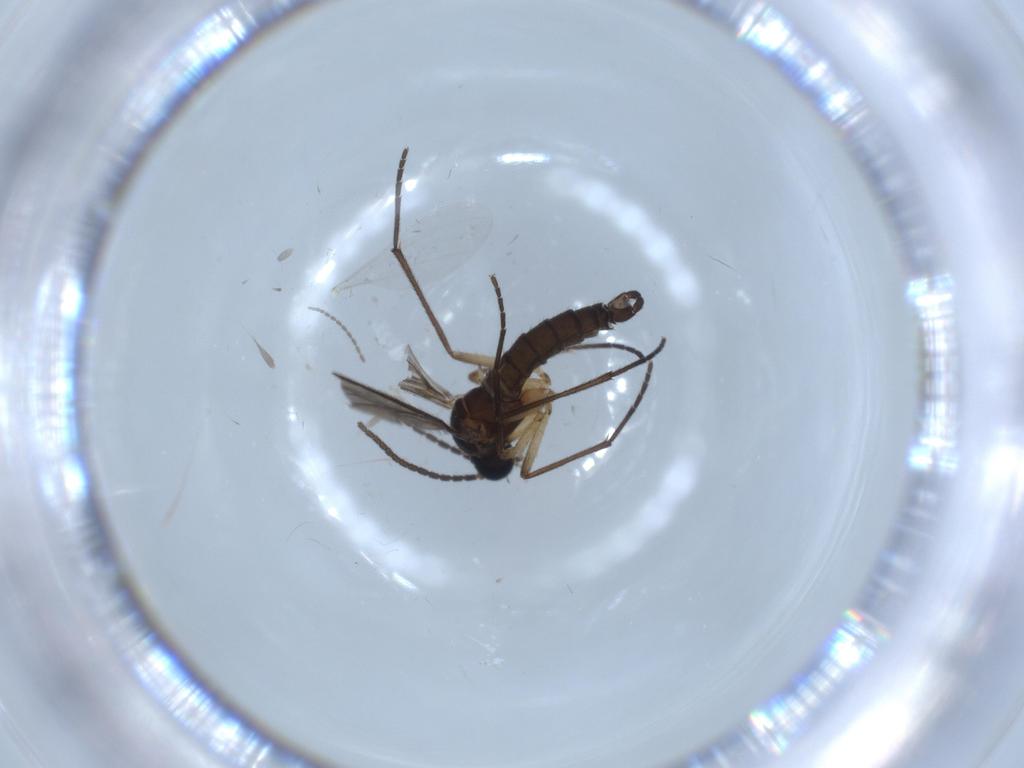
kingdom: Animalia
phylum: Arthropoda
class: Insecta
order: Diptera
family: Sciaridae
